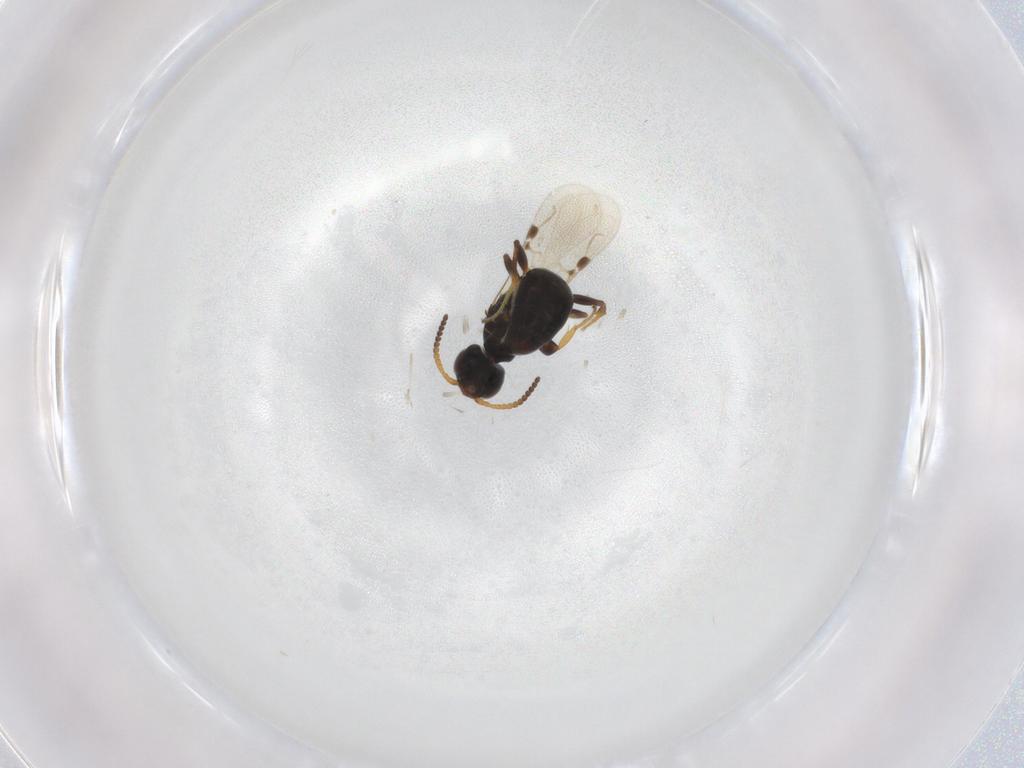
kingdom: Animalia
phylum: Arthropoda
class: Insecta
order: Hymenoptera
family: Bethylidae
